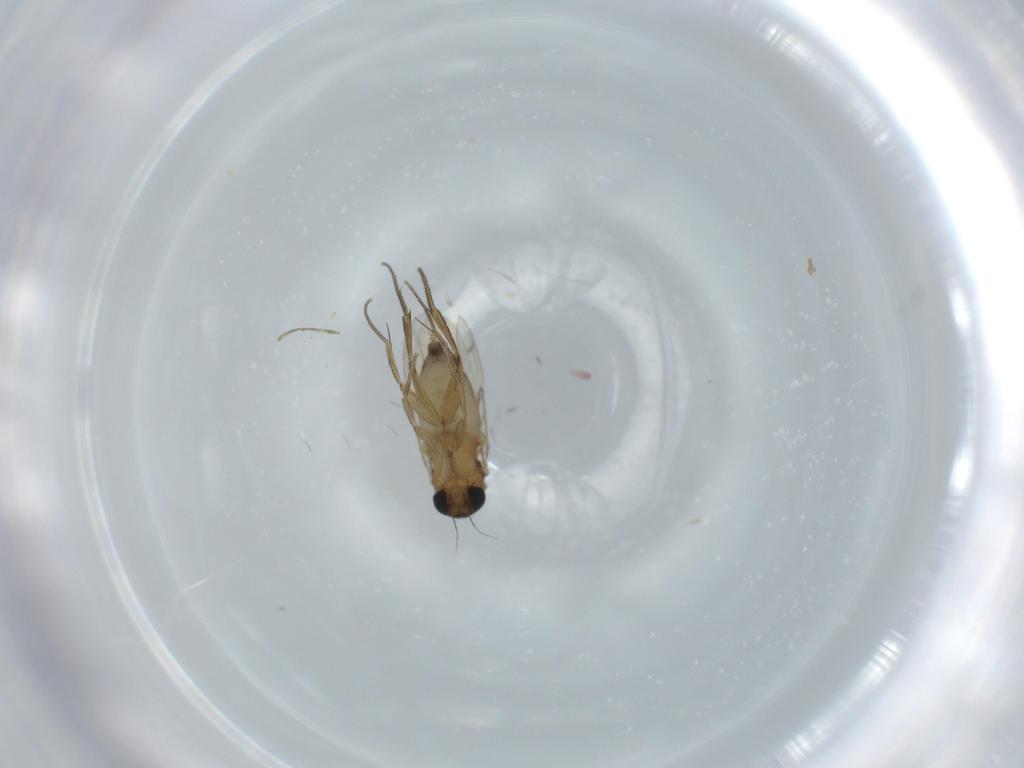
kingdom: Animalia
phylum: Arthropoda
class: Insecta
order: Diptera
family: Phoridae
